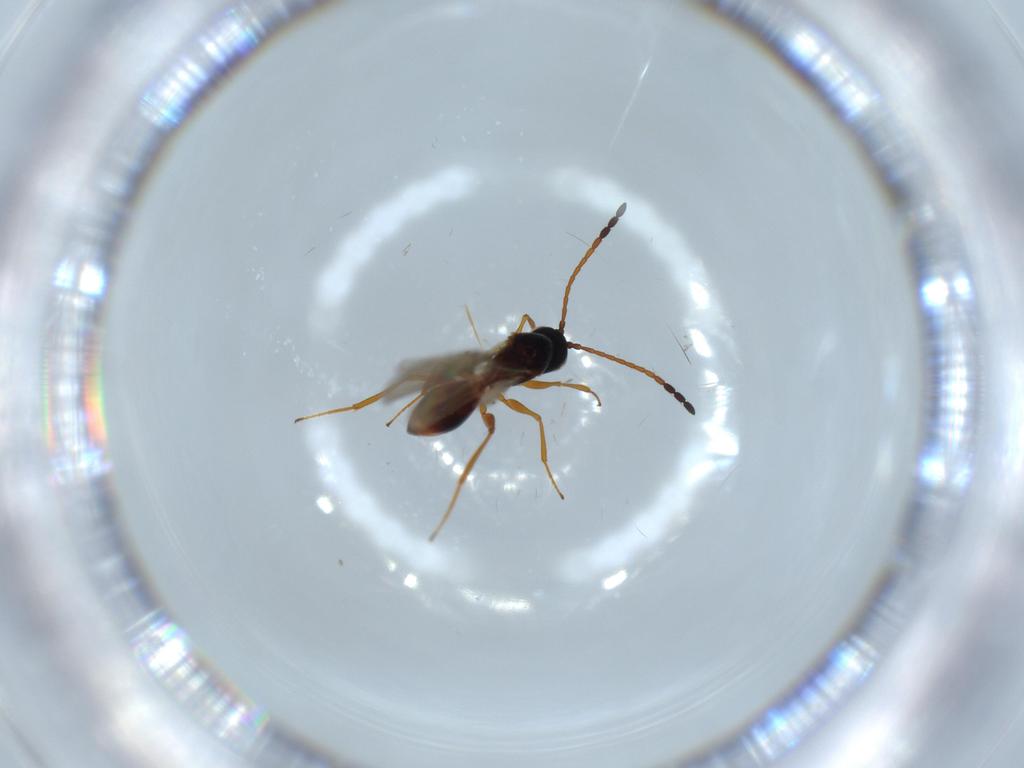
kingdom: Animalia
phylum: Arthropoda
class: Insecta
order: Hymenoptera
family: Figitidae
